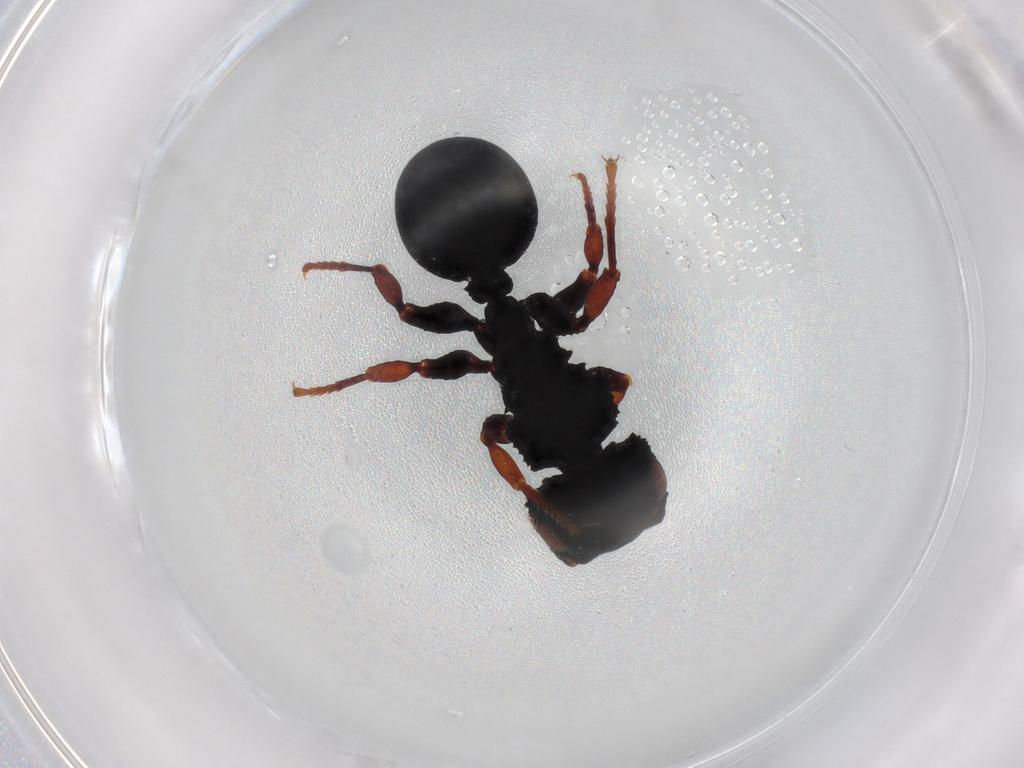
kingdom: Animalia
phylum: Arthropoda
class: Insecta
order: Hymenoptera
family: Formicidae
